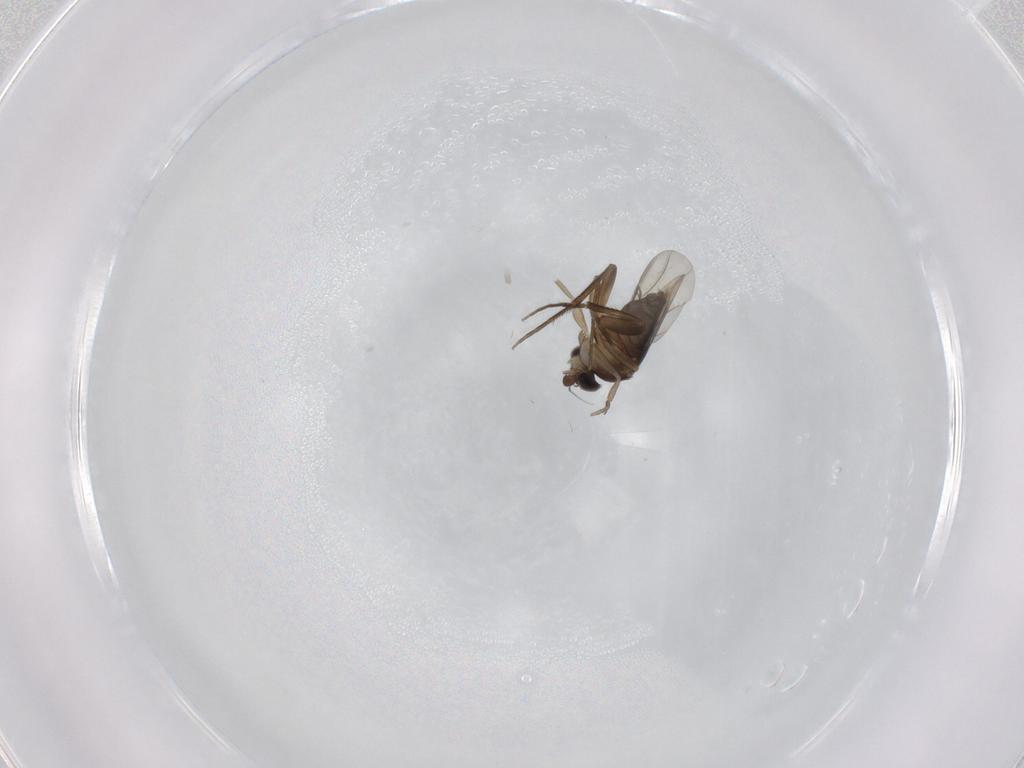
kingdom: Animalia
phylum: Arthropoda
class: Insecta
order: Diptera
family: Phoridae
